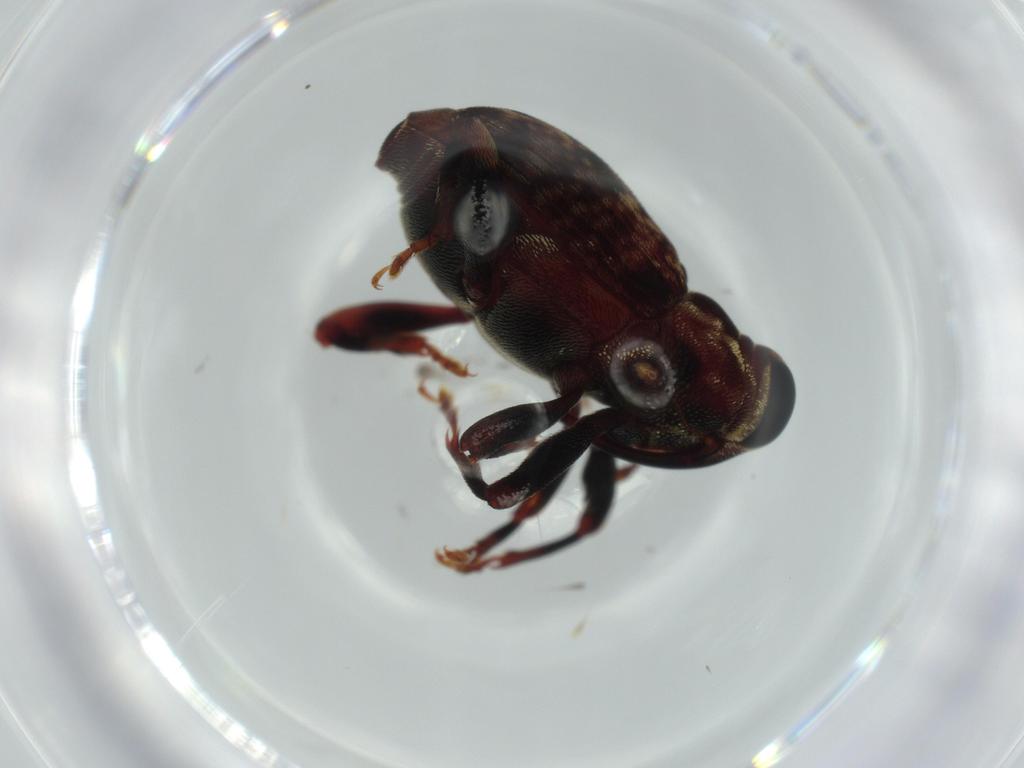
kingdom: Animalia
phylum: Arthropoda
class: Insecta
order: Coleoptera
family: Curculionidae
